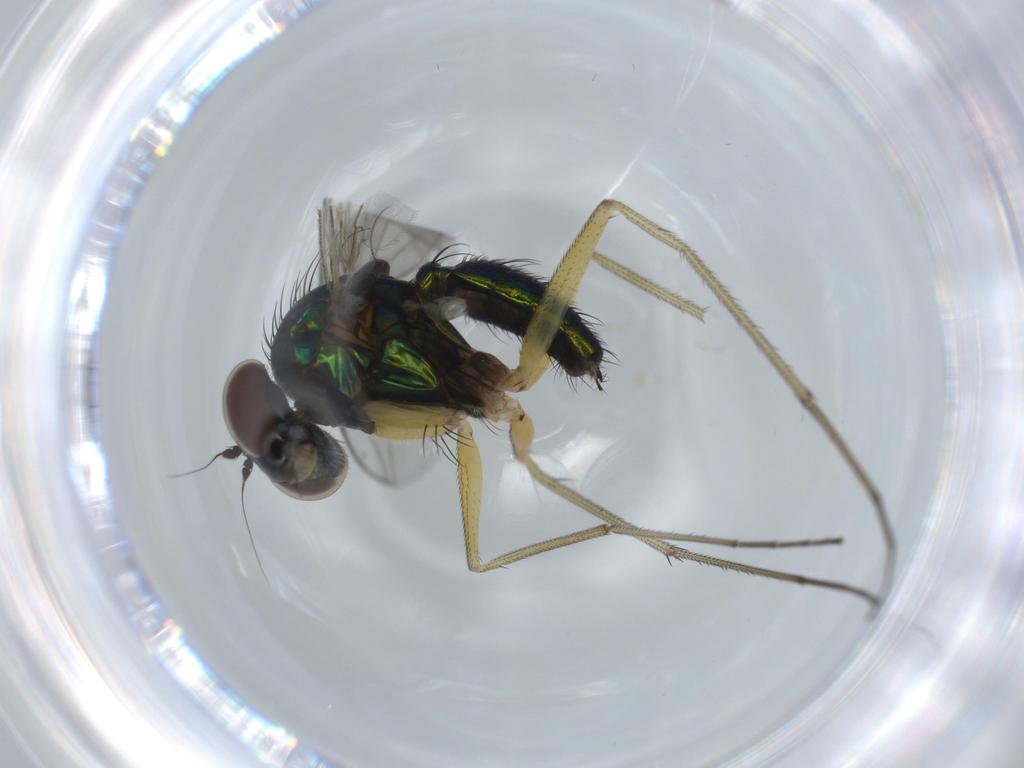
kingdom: Animalia
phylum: Arthropoda
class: Insecta
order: Diptera
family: Dolichopodidae
